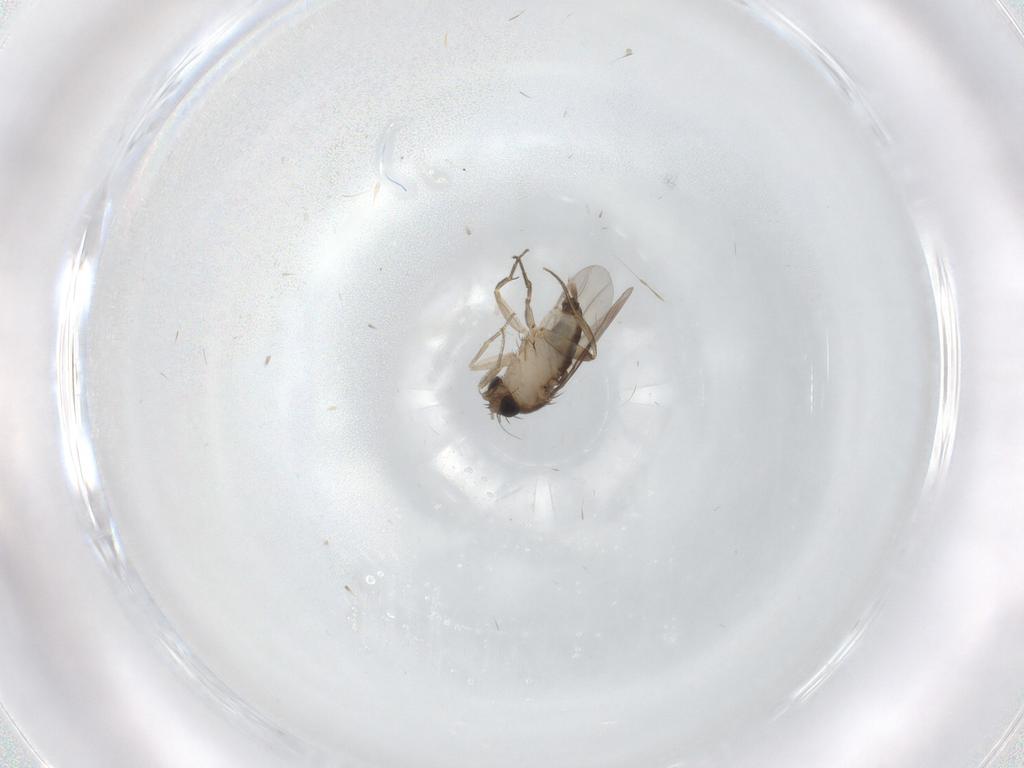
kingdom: Animalia
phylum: Arthropoda
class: Insecta
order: Diptera
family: Phoridae
